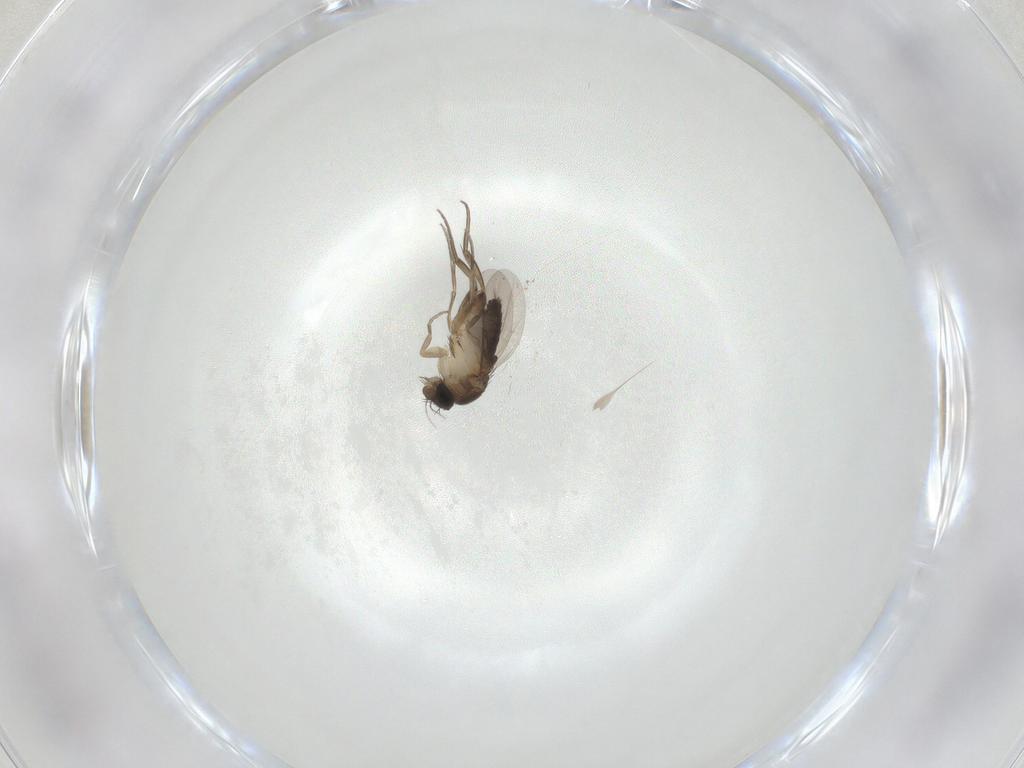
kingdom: Animalia
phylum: Arthropoda
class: Insecta
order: Diptera
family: Phoridae
